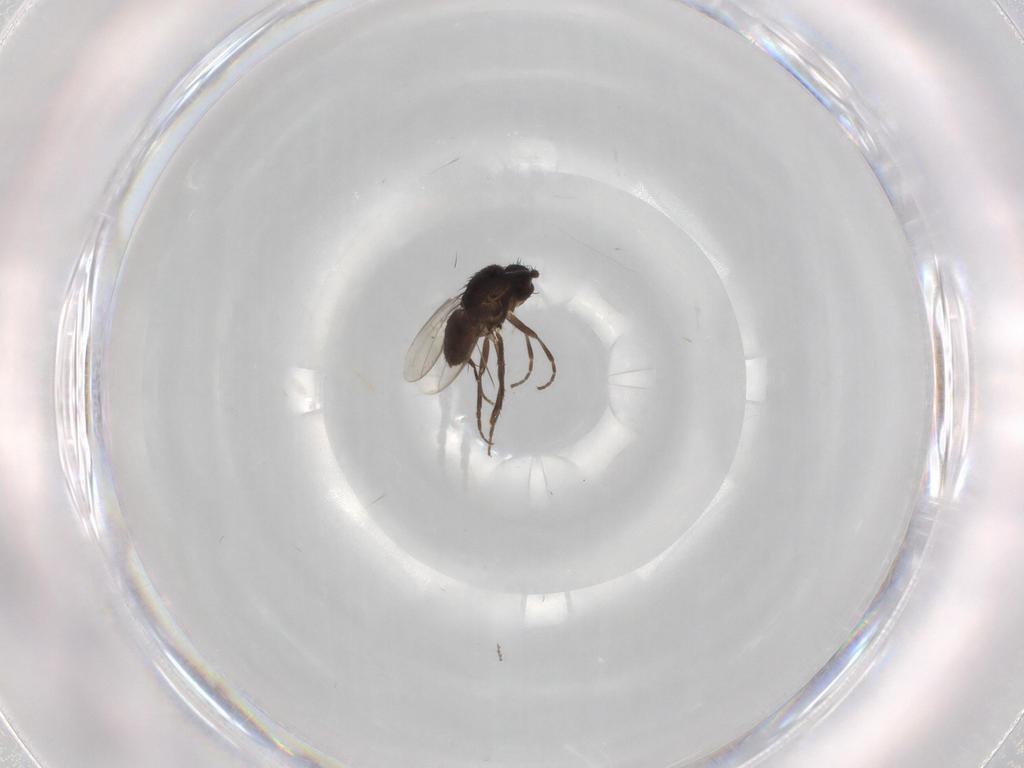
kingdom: Animalia
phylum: Arthropoda
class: Insecta
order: Diptera
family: Sphaeroceridae
